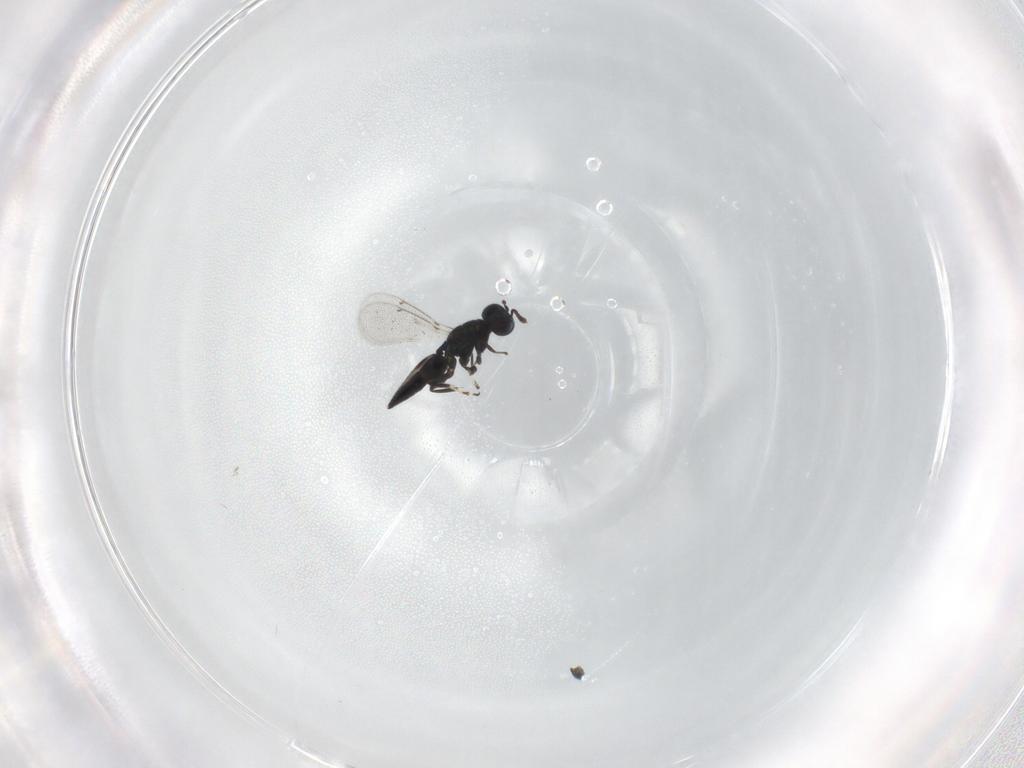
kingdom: Animalia
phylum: Arthropoda
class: Insecta
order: Hymenoptera
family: Eulophidae
